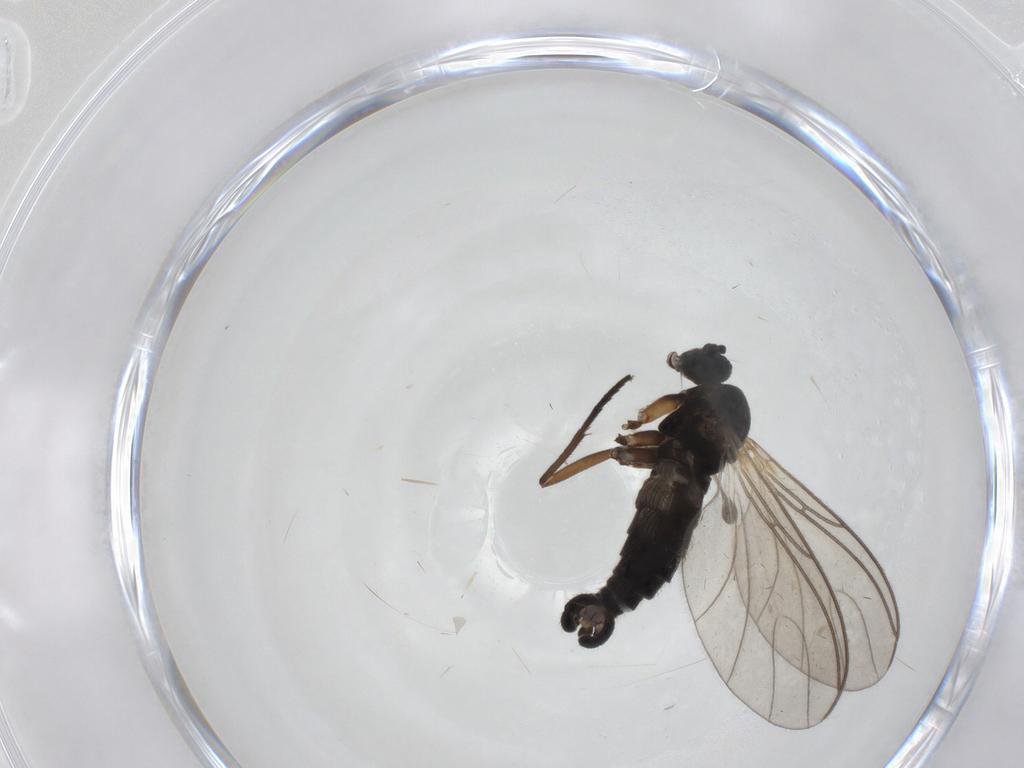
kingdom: Animalia
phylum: Arthropoda
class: Insecta
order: Diptera
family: Sciaridae
